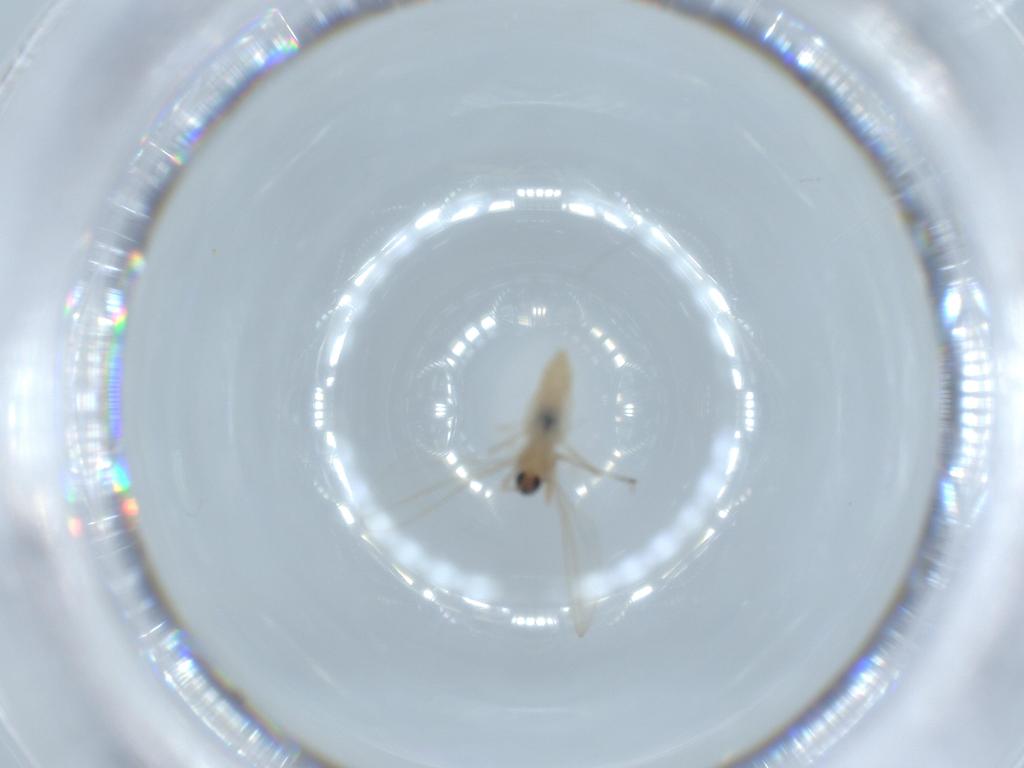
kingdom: Animalia
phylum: Arthropoda
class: Insecta
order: Diptera
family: Cecidomyiidae
